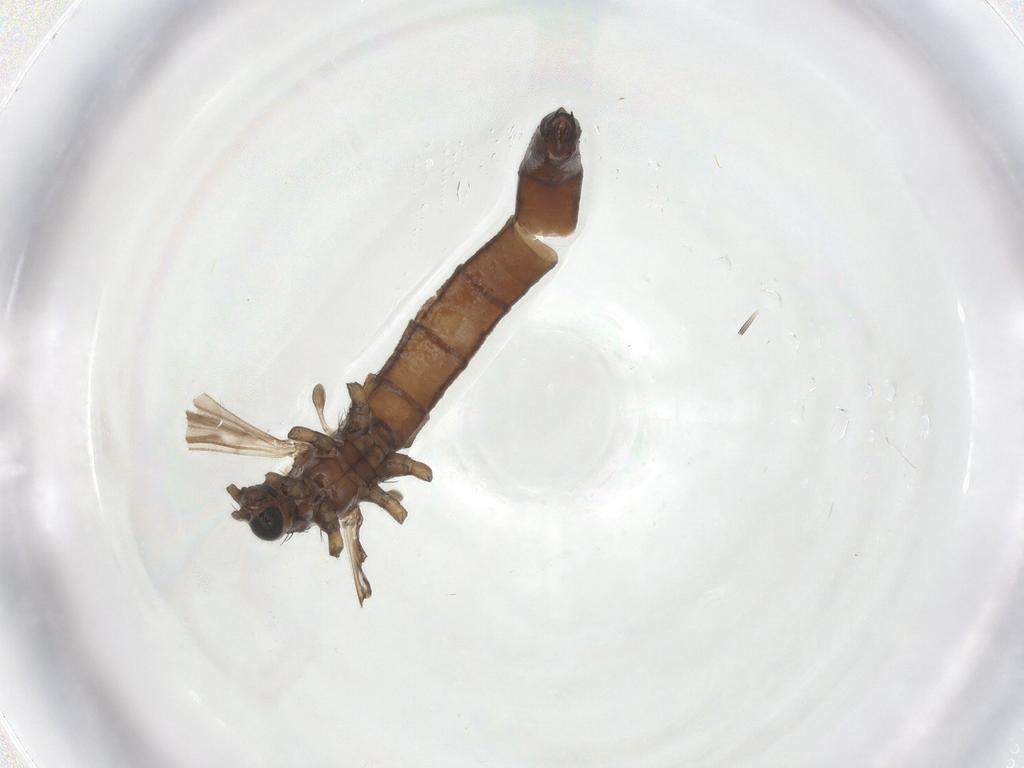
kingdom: Animalia
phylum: Arthropoda
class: Insecta
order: Diptera
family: Limoniidae
